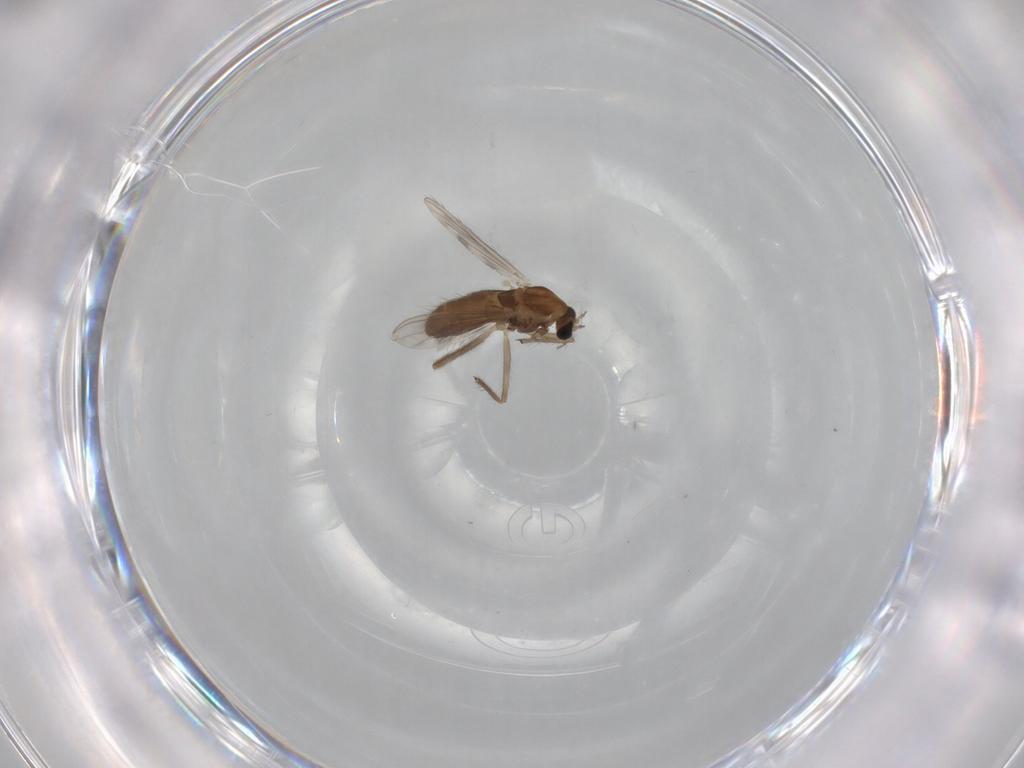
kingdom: Animalia
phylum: Arthropoda
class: Insecta
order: Diptera
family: Chironomidae
